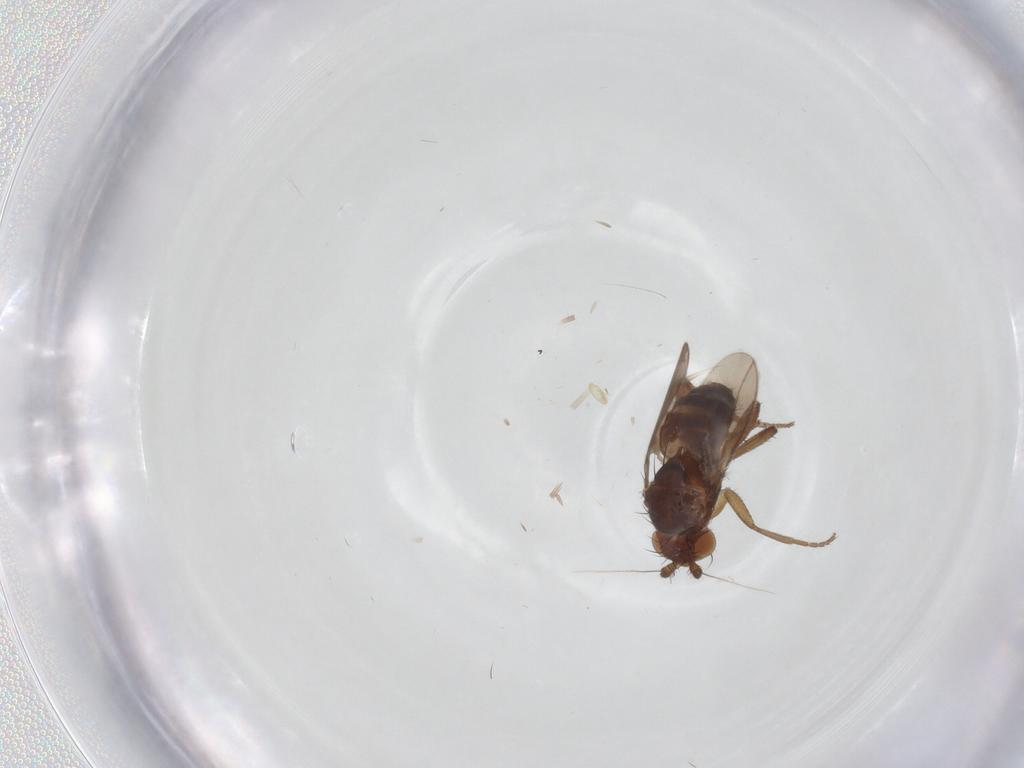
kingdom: Animalia
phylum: Arthropoda
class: Insecta
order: Diptera
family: Sphaeroceridae
